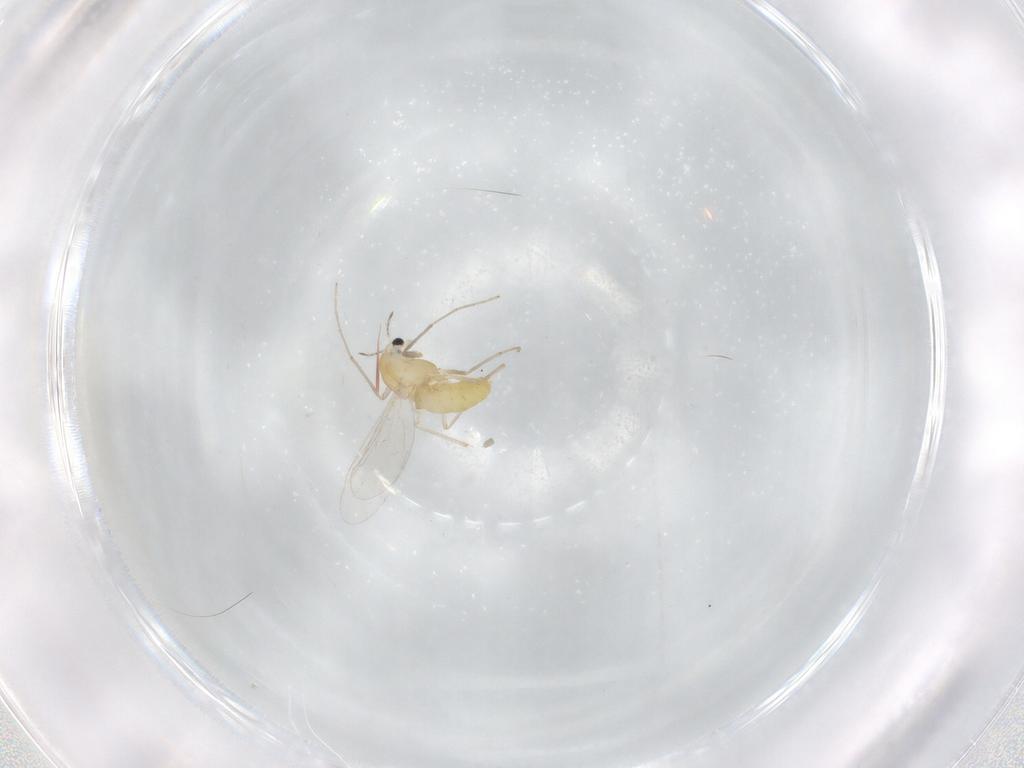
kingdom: Animalia
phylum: Arthropoda
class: Insecta
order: Diptera
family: Chironomidae
